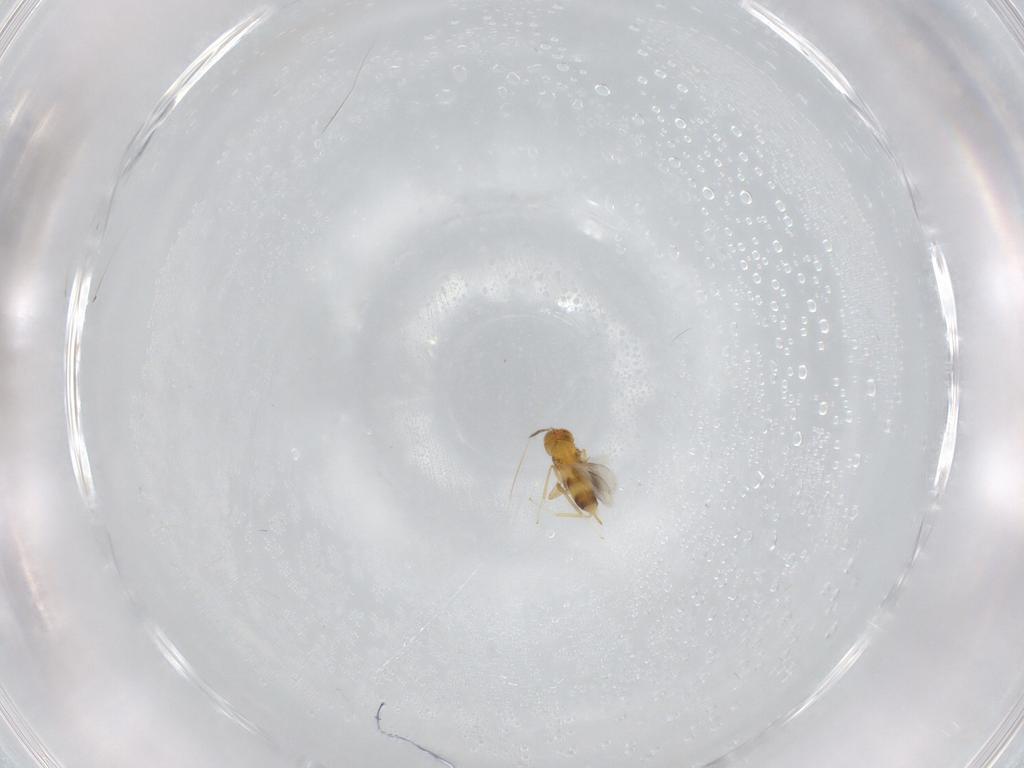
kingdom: Animalia
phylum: Arthropoda
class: Insecta
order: Hymenoptera
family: Aphelinidae
